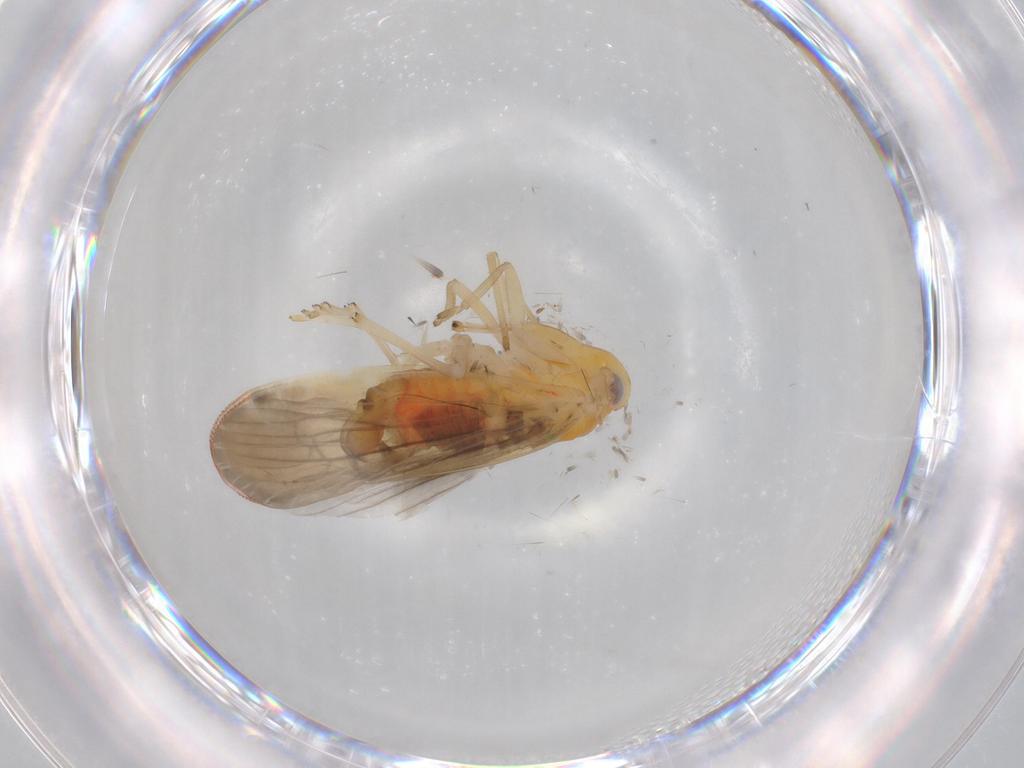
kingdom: Animalia
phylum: Arthropoda
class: Insecta
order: Hemiptera
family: Derbidae
